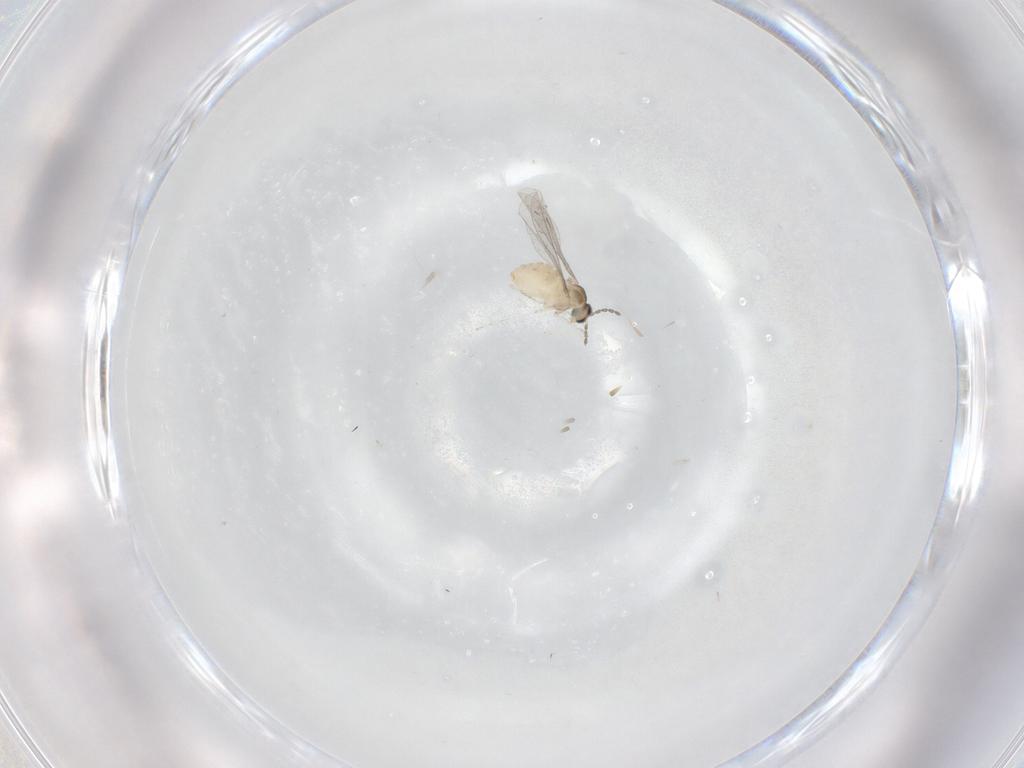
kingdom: Animalia
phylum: Arthropoda
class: Insecta
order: Diptera
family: Cecidomyiidae
